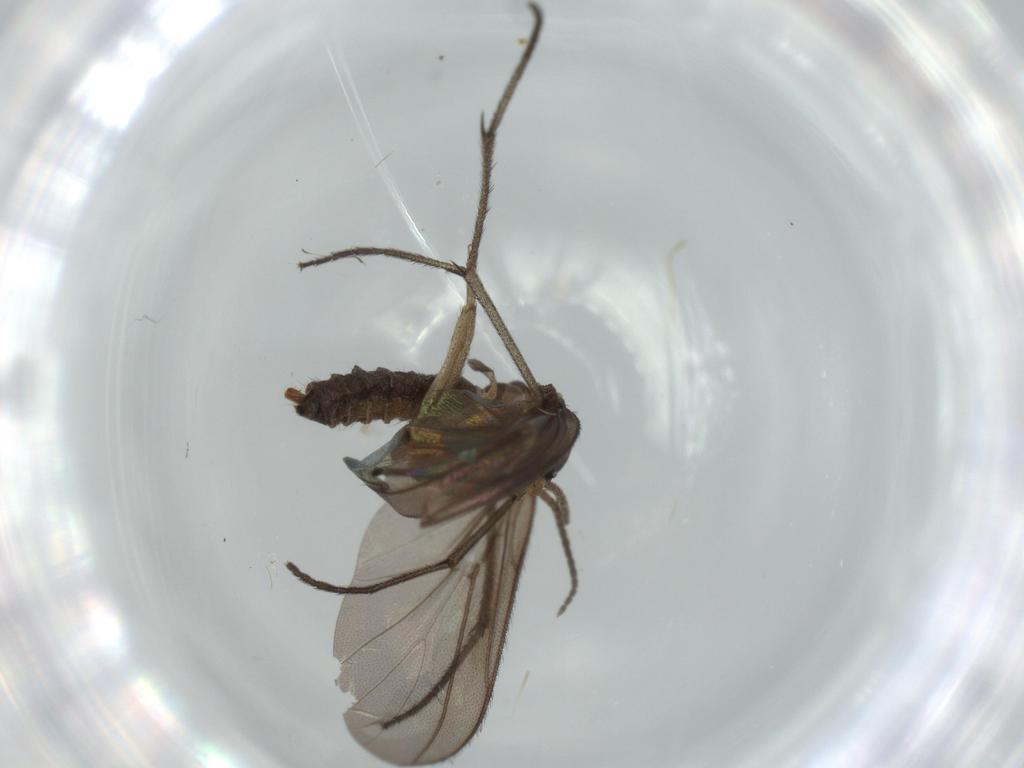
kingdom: Animalia
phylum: Arthropoda
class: Insecta
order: Diptera
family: Diadocidiidae
